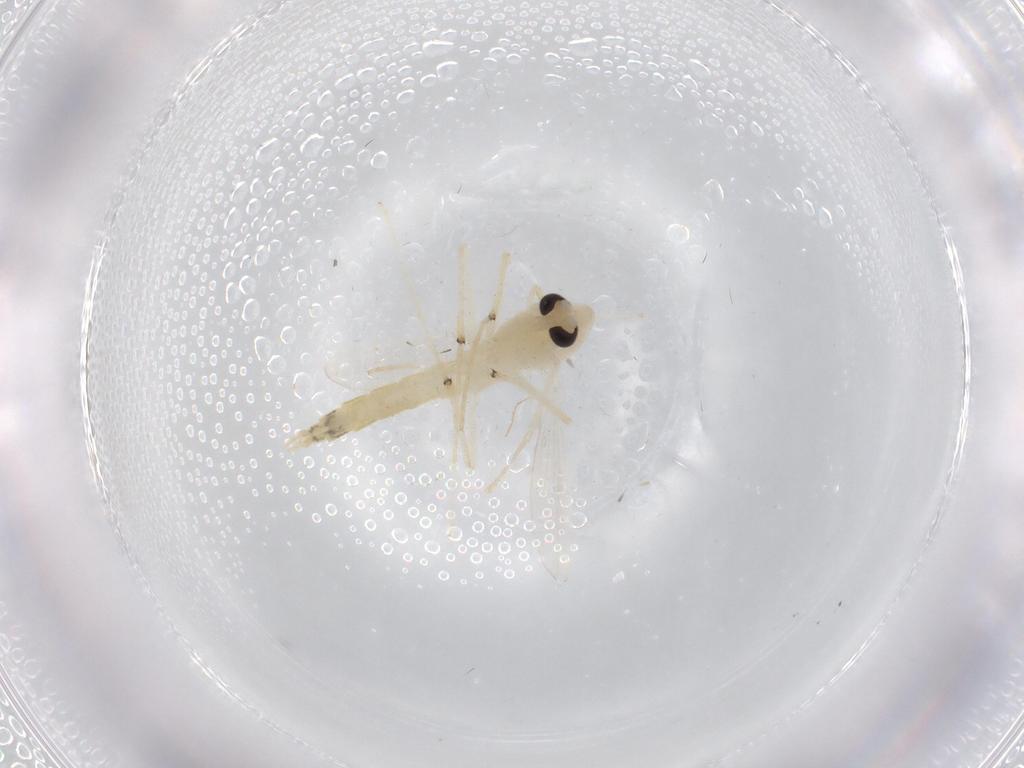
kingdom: Animalia
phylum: Arthropoda
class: Insecta
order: Diptera
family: Chironomidae
